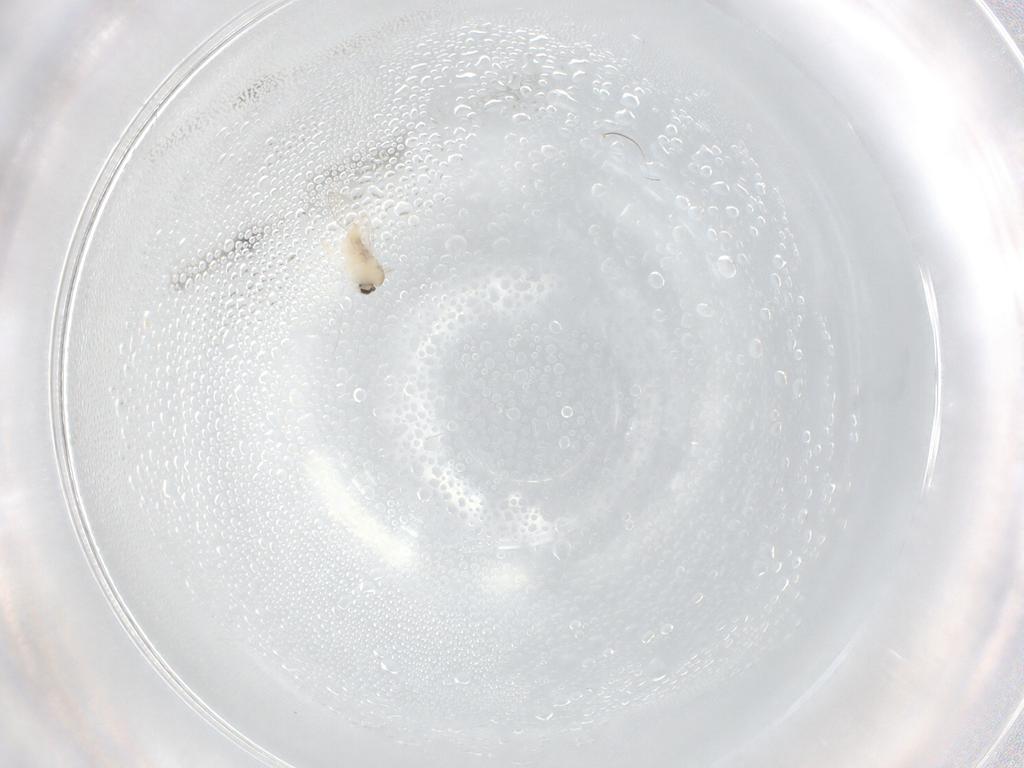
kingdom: Animalia
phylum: Arthropoda
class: Insecta
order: Diptera
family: Cecidomyiidae
